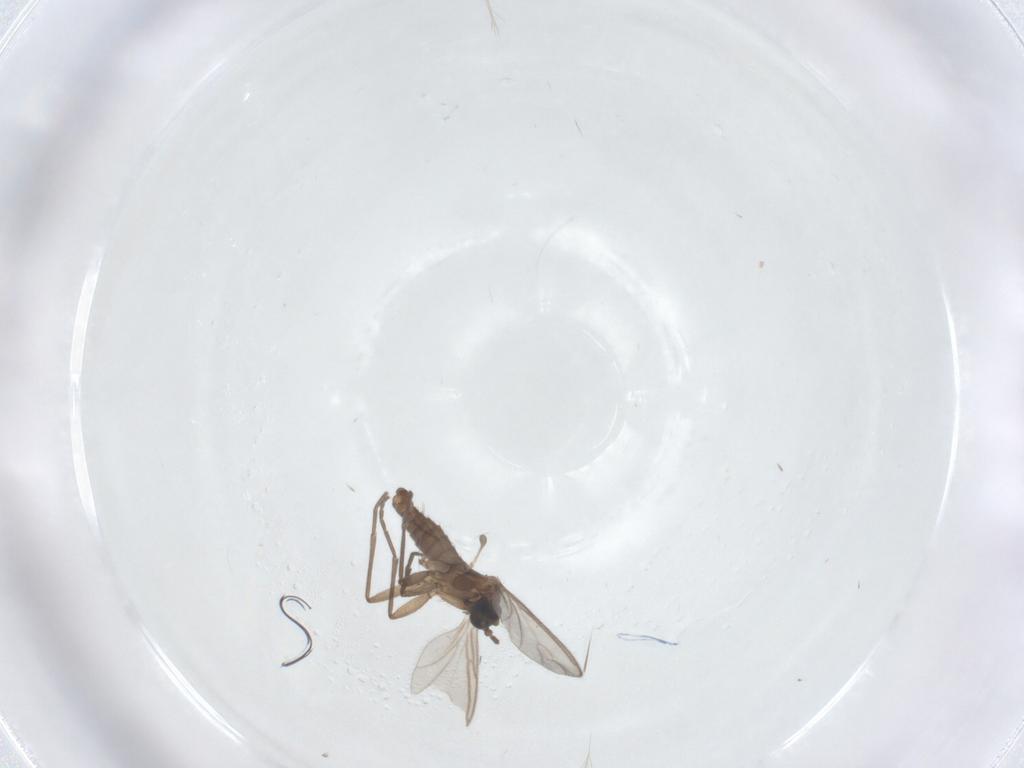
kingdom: Animalia
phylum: Arthropoda
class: Insecta
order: Diptera
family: Sciaridae
